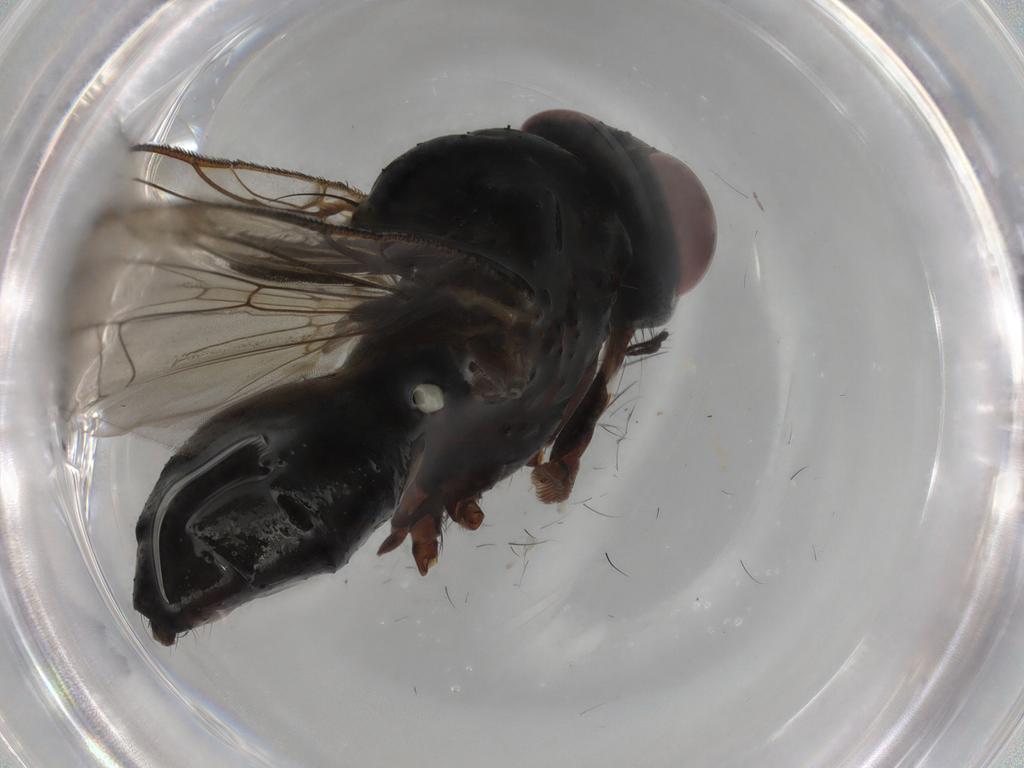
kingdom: Animalia
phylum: Arthropoda
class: Insecta
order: Diptera
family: Anthomyiidae
